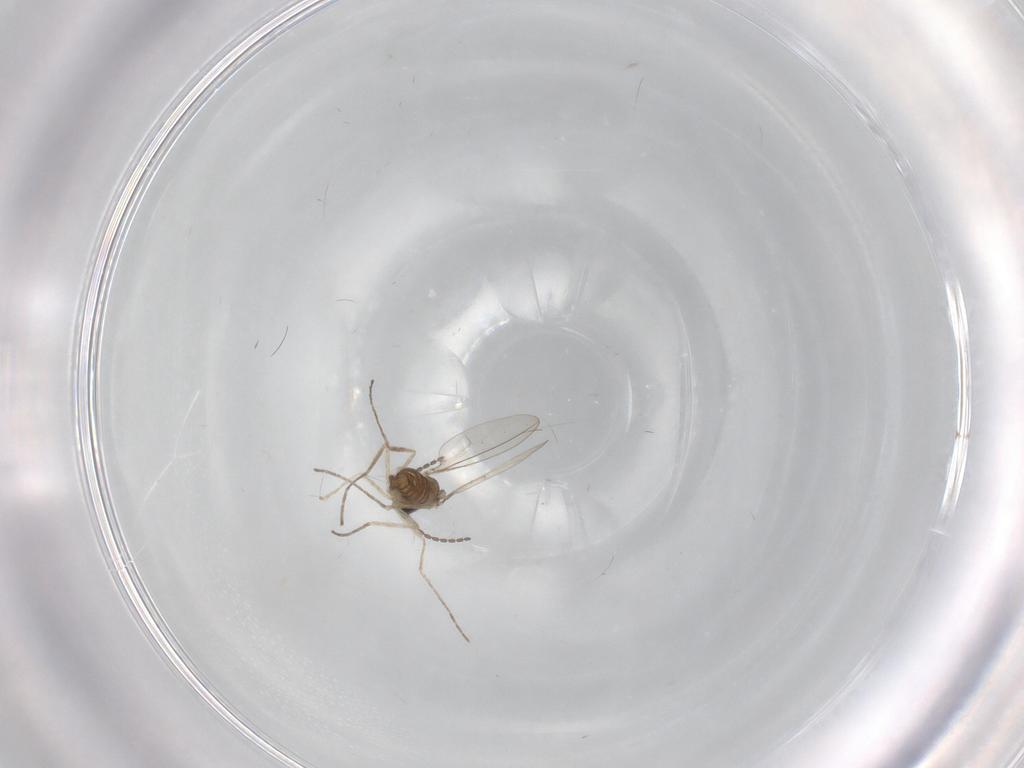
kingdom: Animalia
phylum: Arthropoda
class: Insecta
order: Diptera
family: Cecidomyiidae
